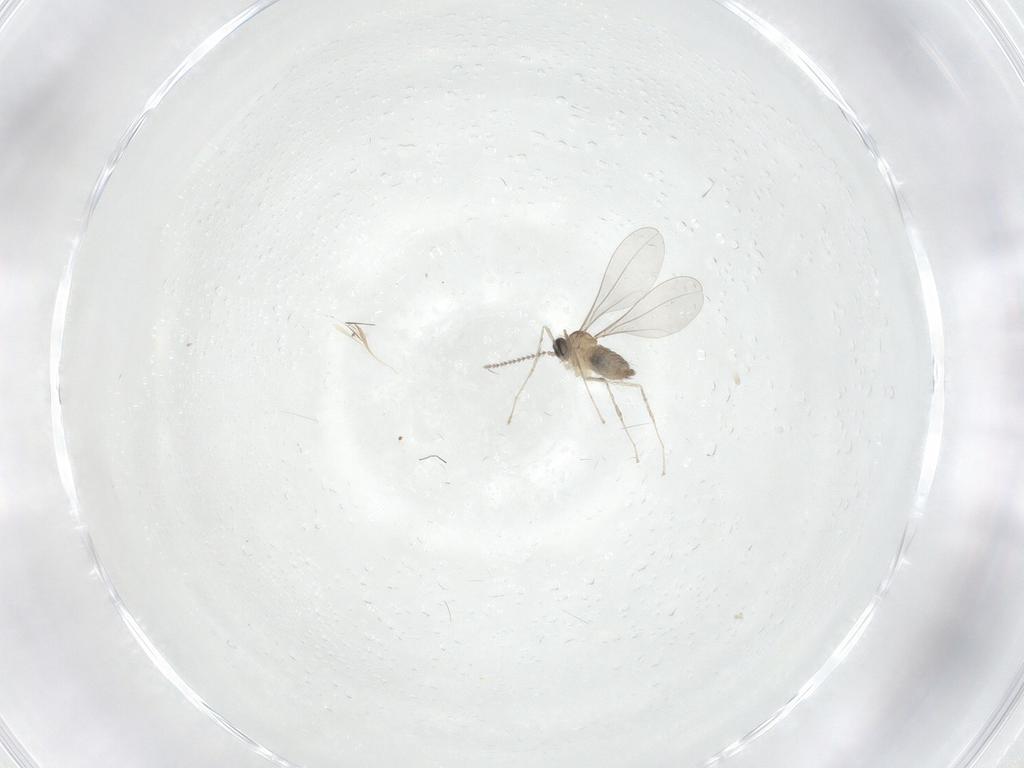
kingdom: Animalia
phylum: Arthropoda
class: Insecta
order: Diptera
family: Cecidomyiidae
